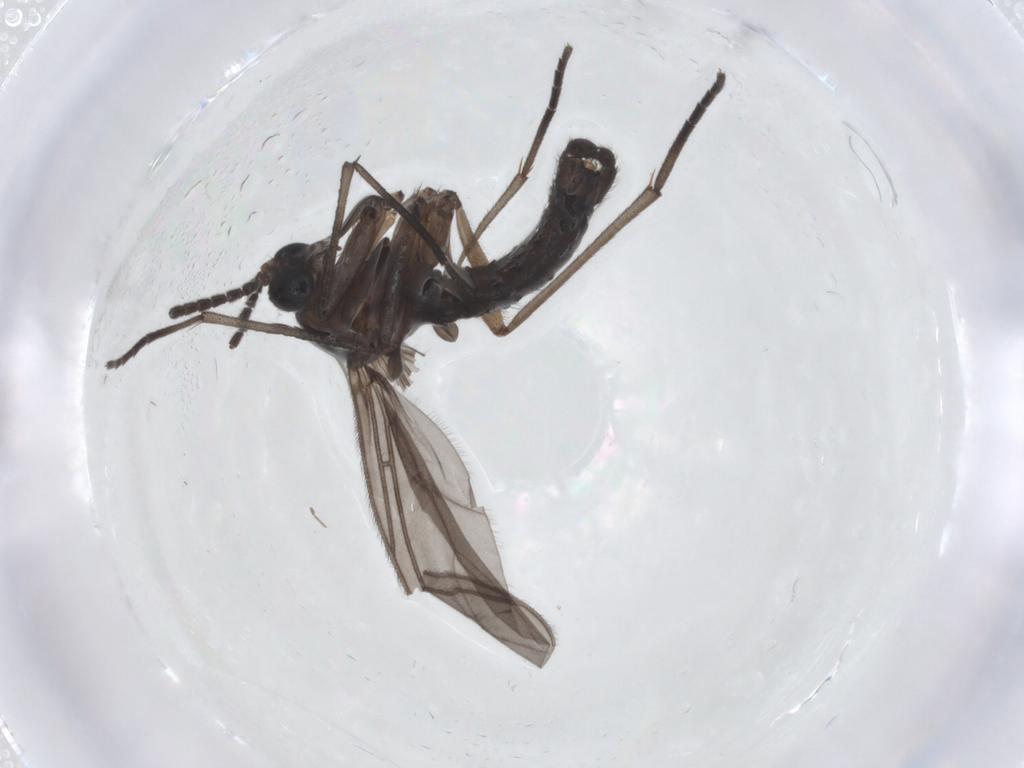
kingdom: Animalia
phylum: Arthropoda
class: Insecta
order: Diptera
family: Sciaridae
